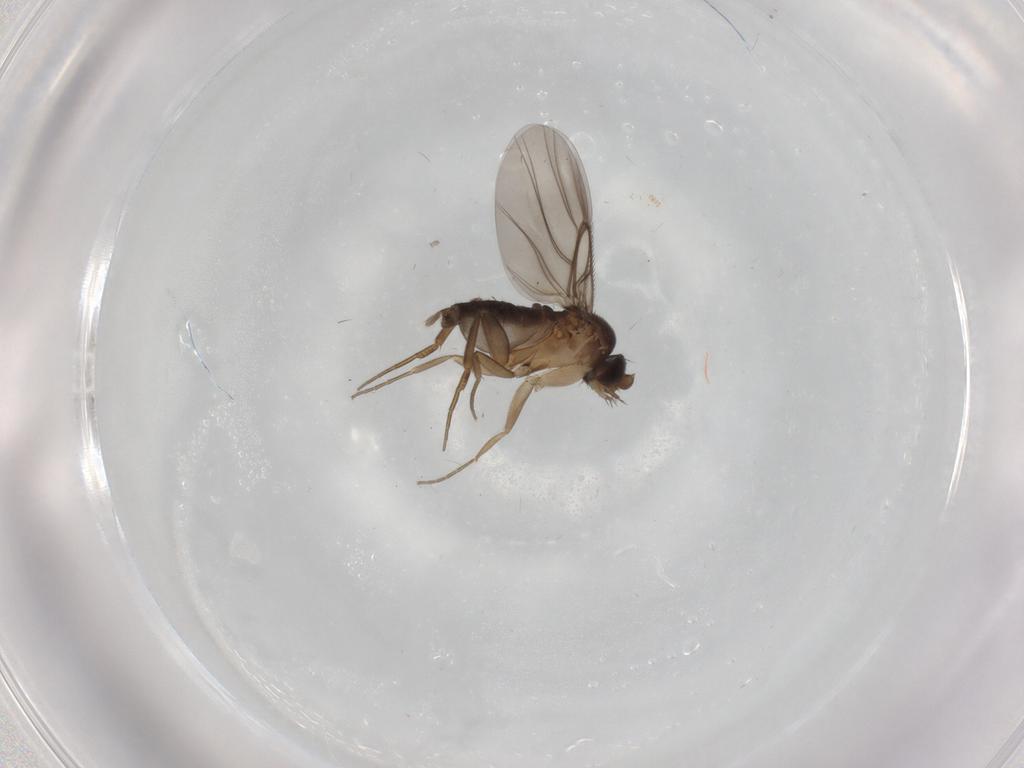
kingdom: Animalia
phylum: Arthropoda
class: Insecta
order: Diptera
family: Phoridae
